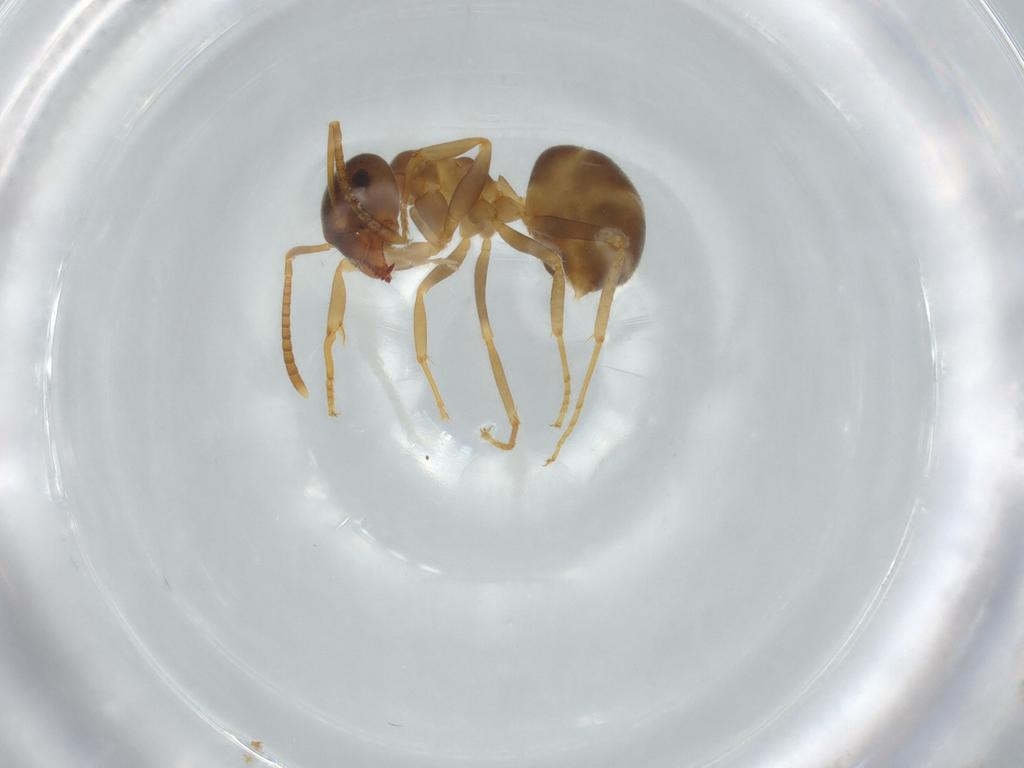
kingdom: Animalia
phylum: Arthropoda
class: Insecta
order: Hymenoptera
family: Formicidae
